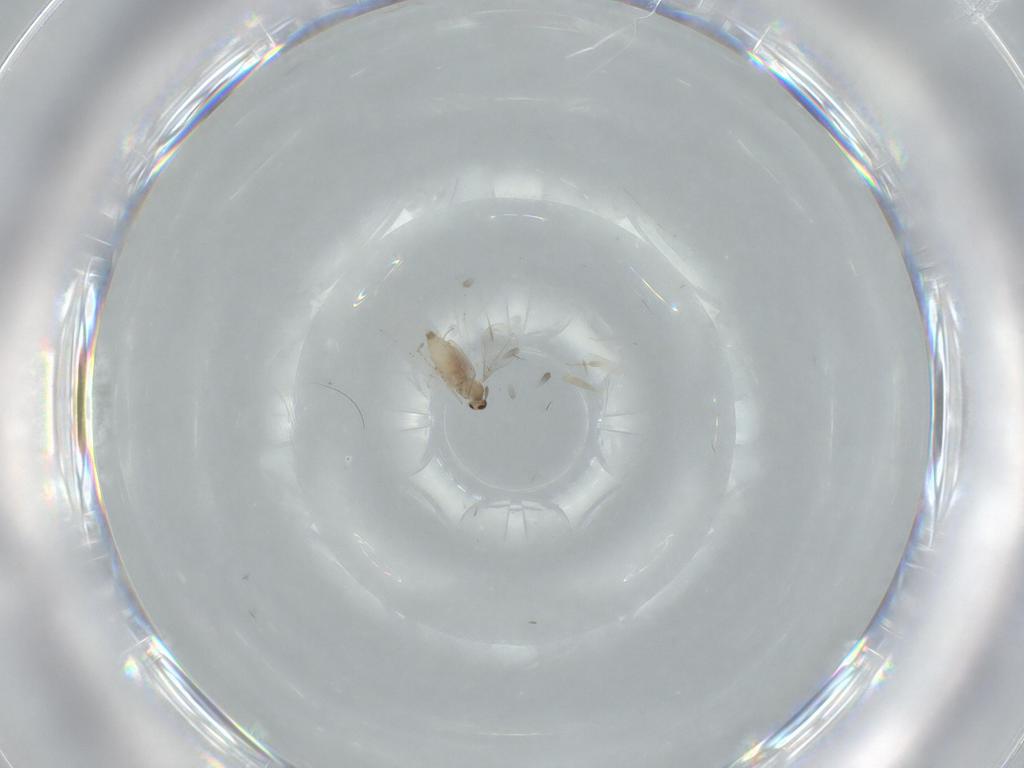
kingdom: Animalia
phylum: Arthropoda
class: Insecta
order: Diptera
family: Cecidomyiidae
